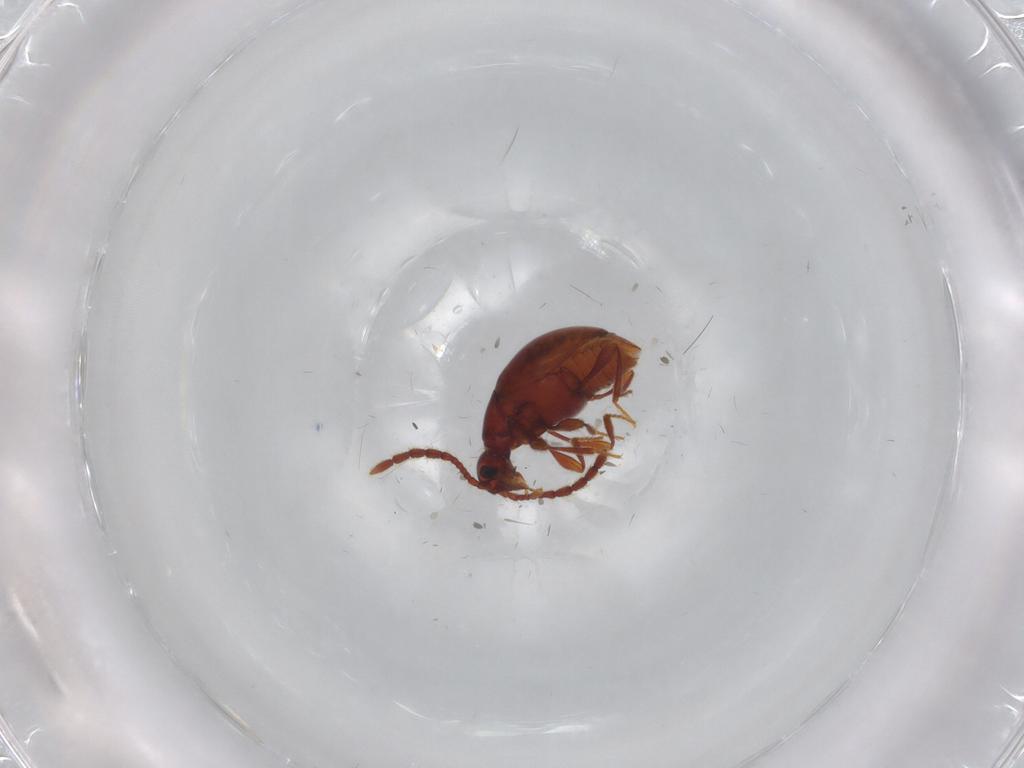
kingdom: Animalia
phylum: Arthropoda
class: Insecta
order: Coleoptera
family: Staphylinidae
